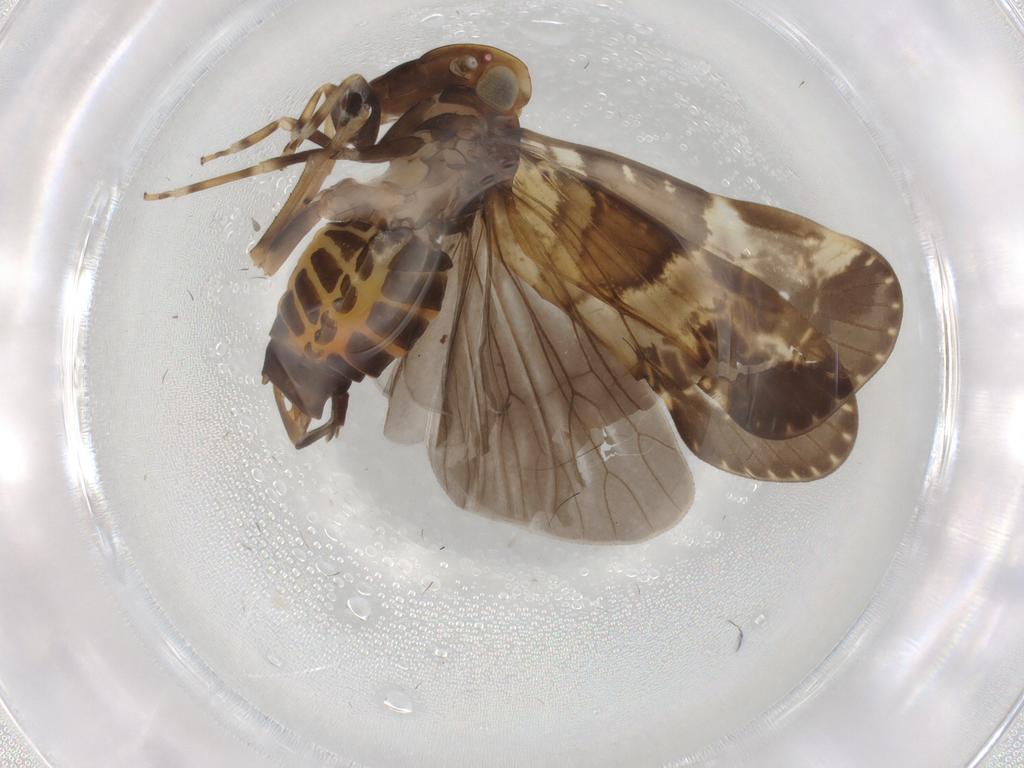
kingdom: Animalia
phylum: Arthropoda
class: Insecta
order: Hemiptera
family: Cixiidae
